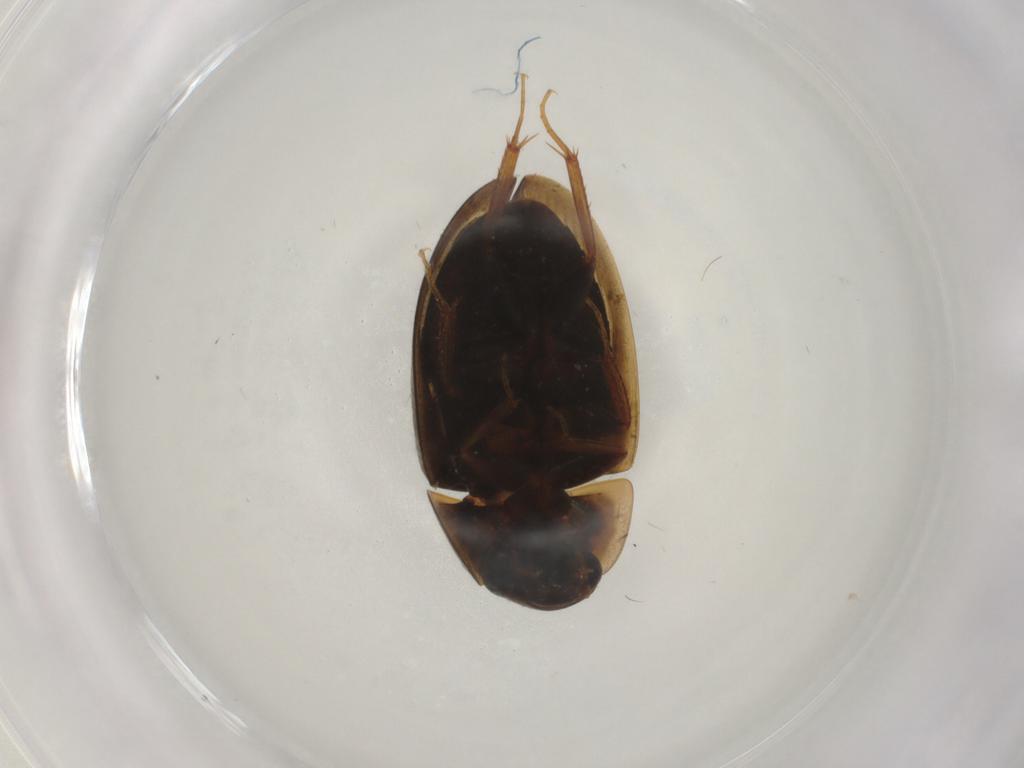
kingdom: Animalia
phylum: Arthropoda
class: Insecta
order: Coleoptera
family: Hydrophilidae
